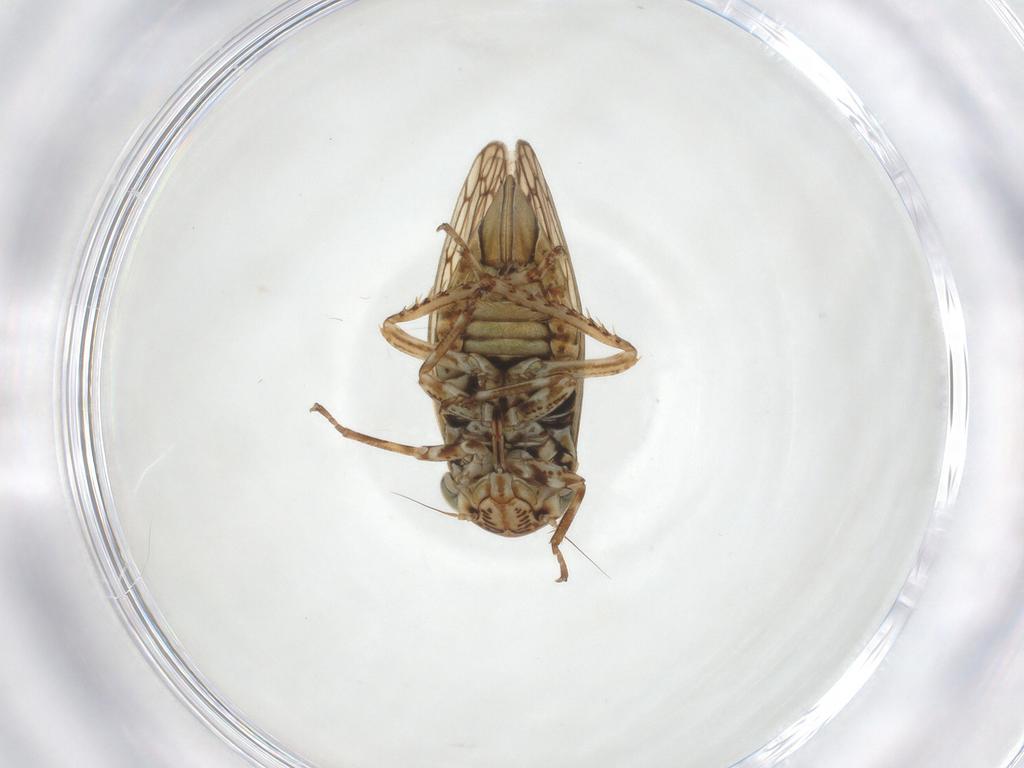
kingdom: Animalia
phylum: Arthropoda
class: Insecta
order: Hemiptera
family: Cicadellidae
